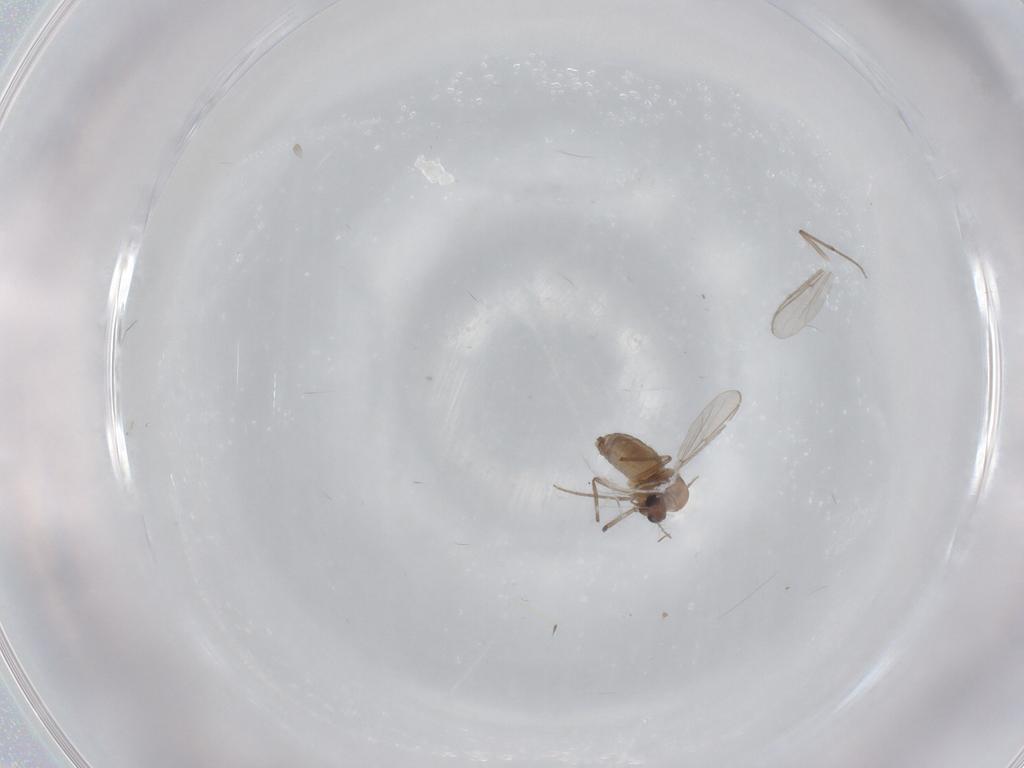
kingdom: Animalia
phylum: Arthropoda
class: Insecta
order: Diptera
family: Chironomidae
